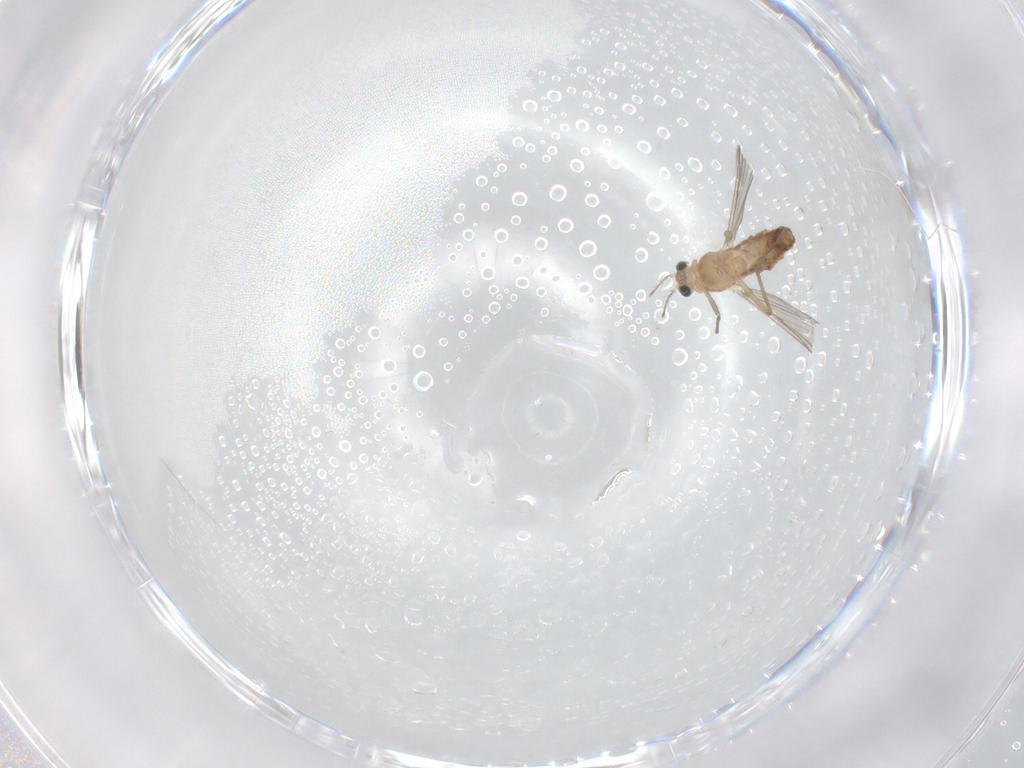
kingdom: Animalia
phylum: Arthropoda
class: Insecta
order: Diptera
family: Chironomidae
